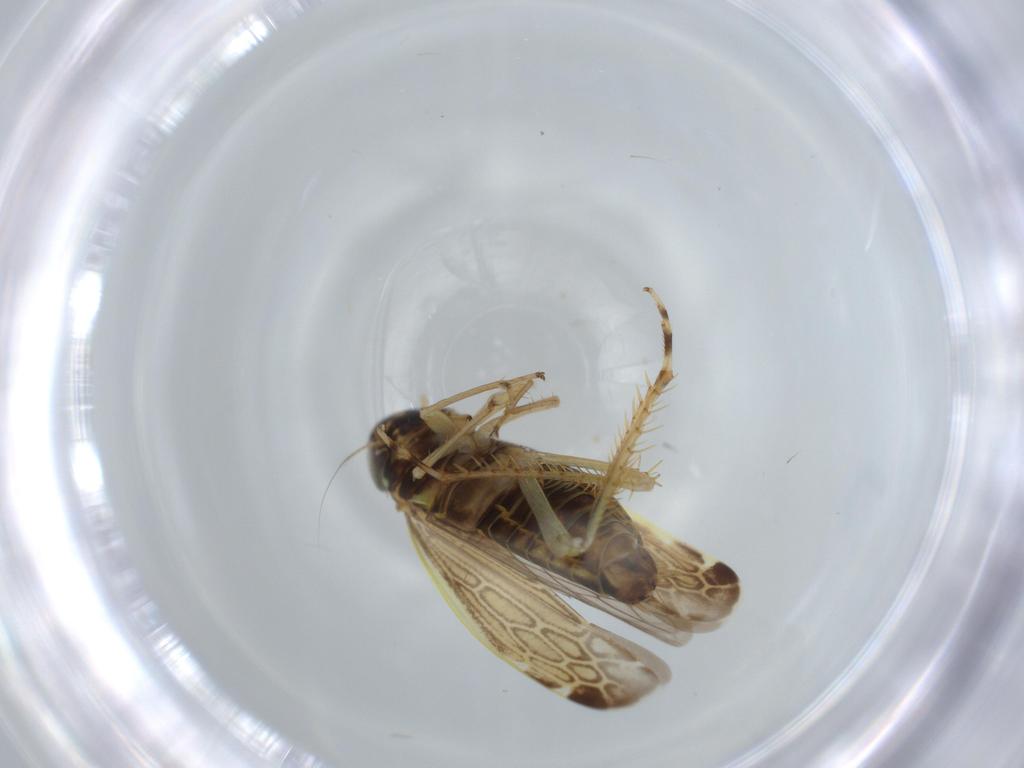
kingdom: Animalia
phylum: Arthropoda
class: Insecta
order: Hemiptera
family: Cicadellidae
